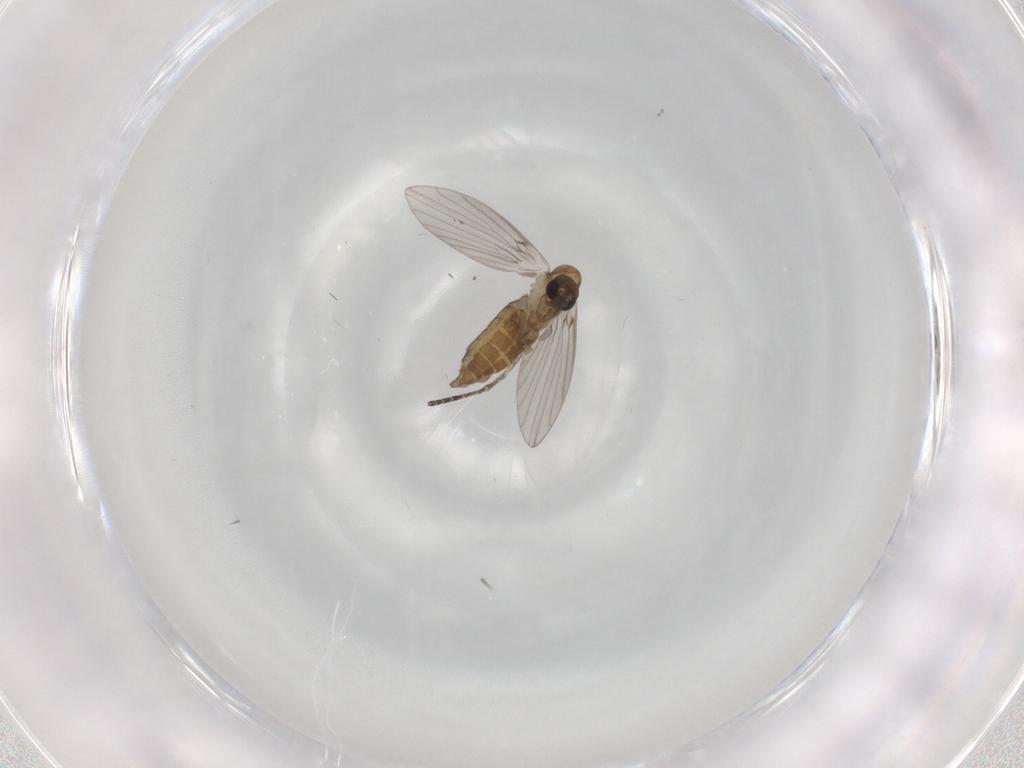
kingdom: Animalia
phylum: Arthropoda
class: Insecta
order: Diptera
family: Psychodidae
